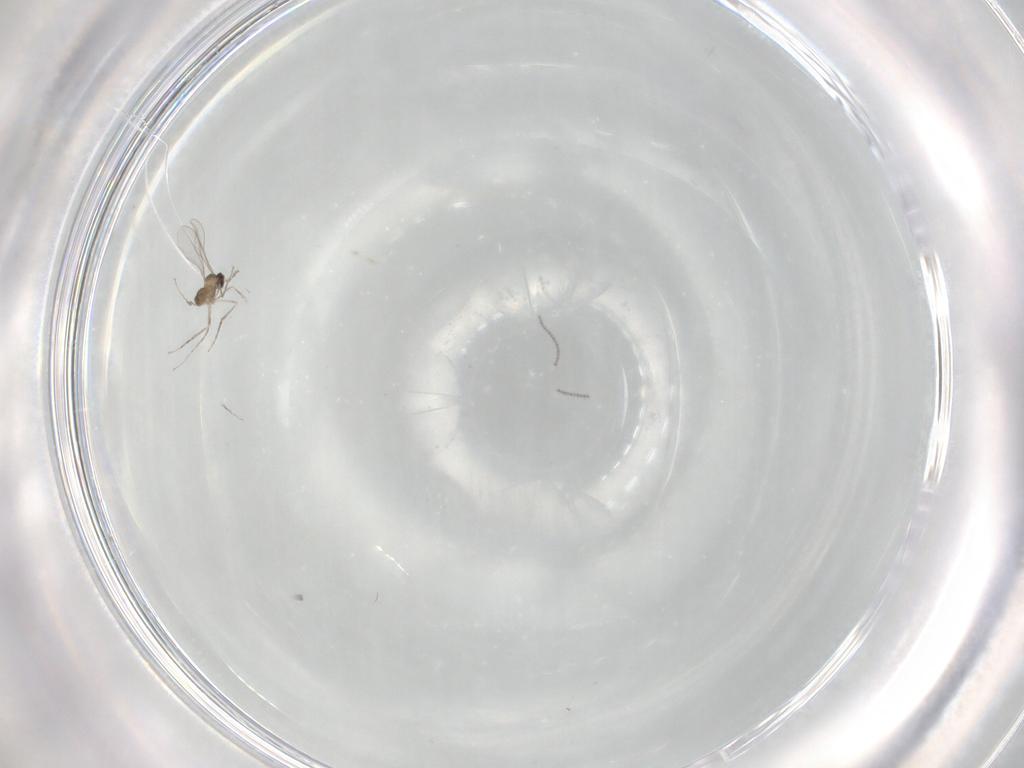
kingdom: Animalia
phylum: Arthropoda
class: Insecta
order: Diptera
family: Cecidomyiidae
